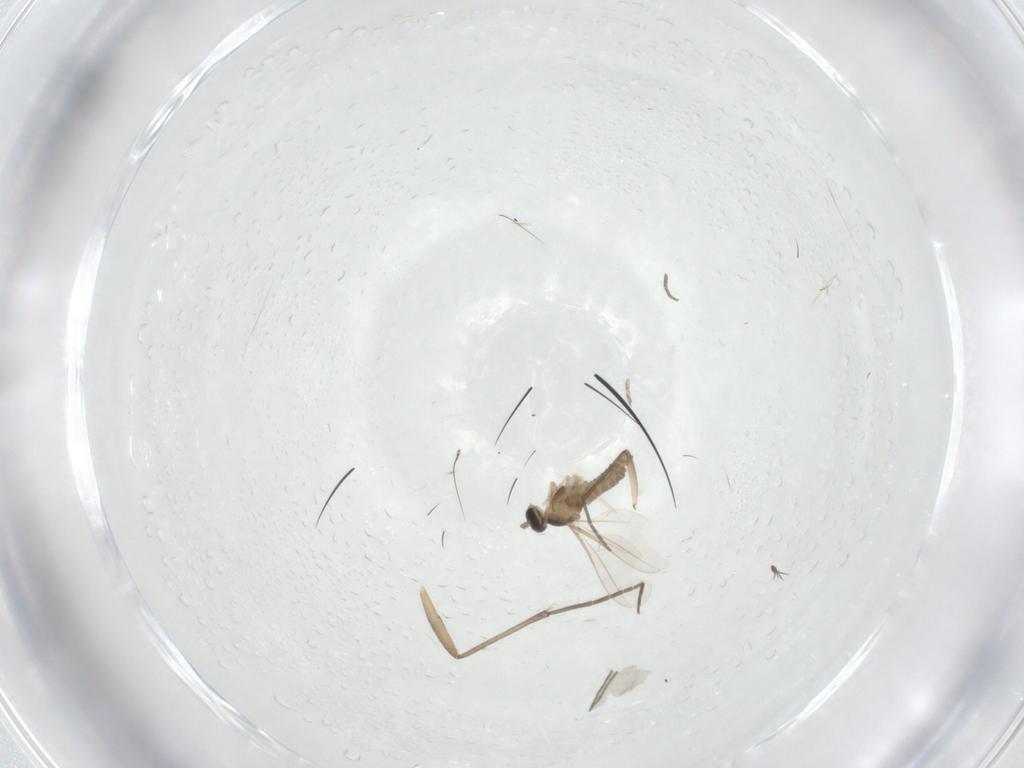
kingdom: Animalia
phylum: Arthropoda
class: Insecta
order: Diptera
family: Cecidomyiidae
